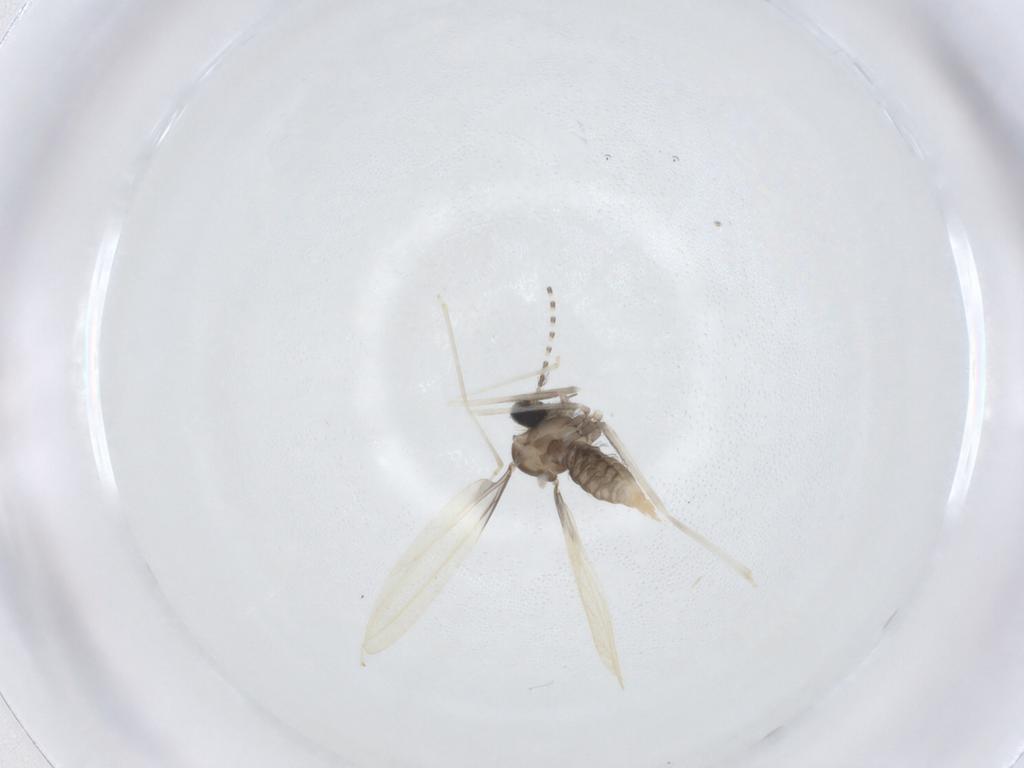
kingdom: Animalia
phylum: Arthropoda
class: Insecta
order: Diptera
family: Cecidomyiidae
